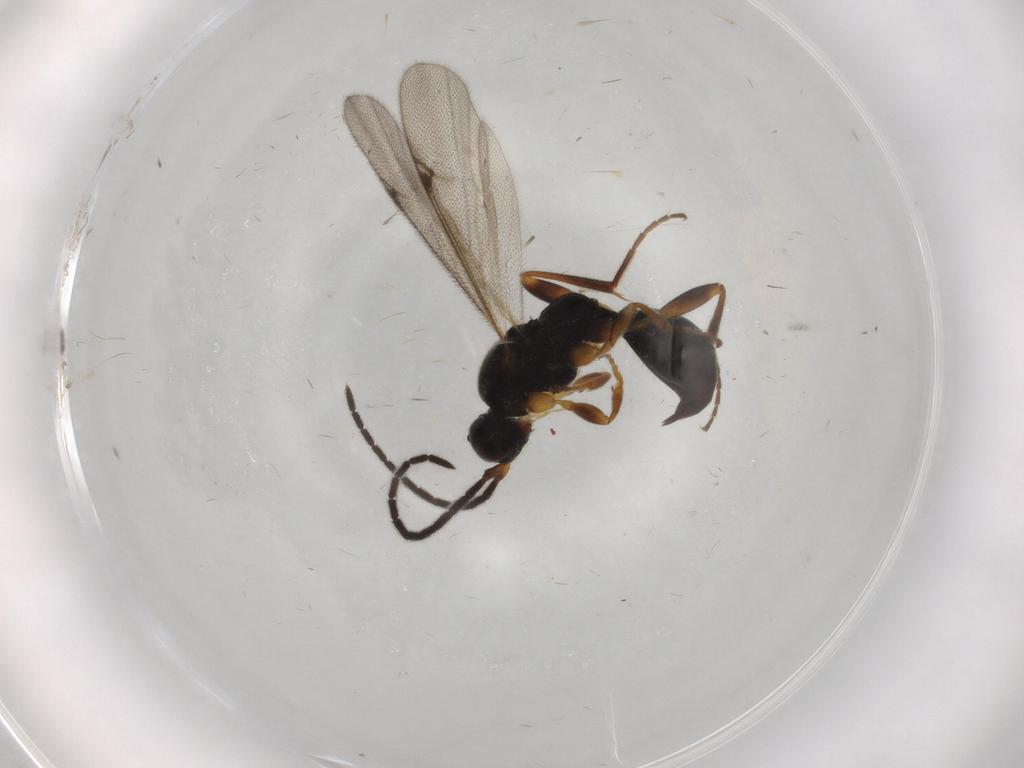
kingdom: Animalia
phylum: Arthropoda
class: Insecta
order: Hymenoptera
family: Proctotrupidae
